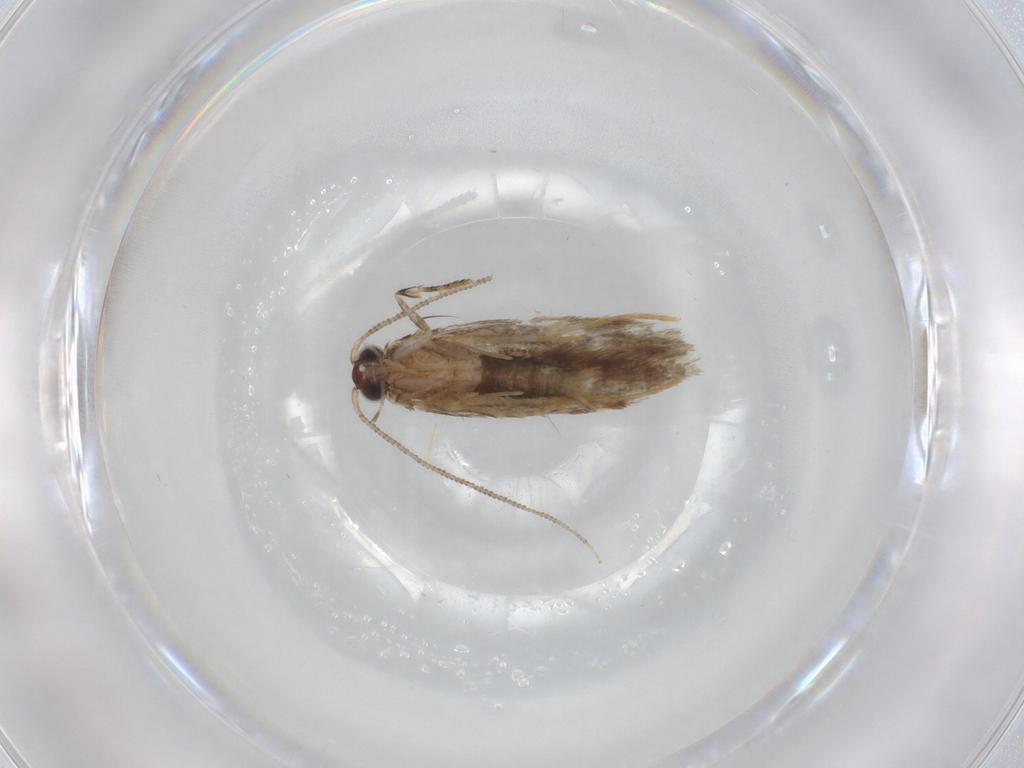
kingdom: Animalia
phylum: Arthropoda
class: Insecta
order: Lepidoptera
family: Tineidae
